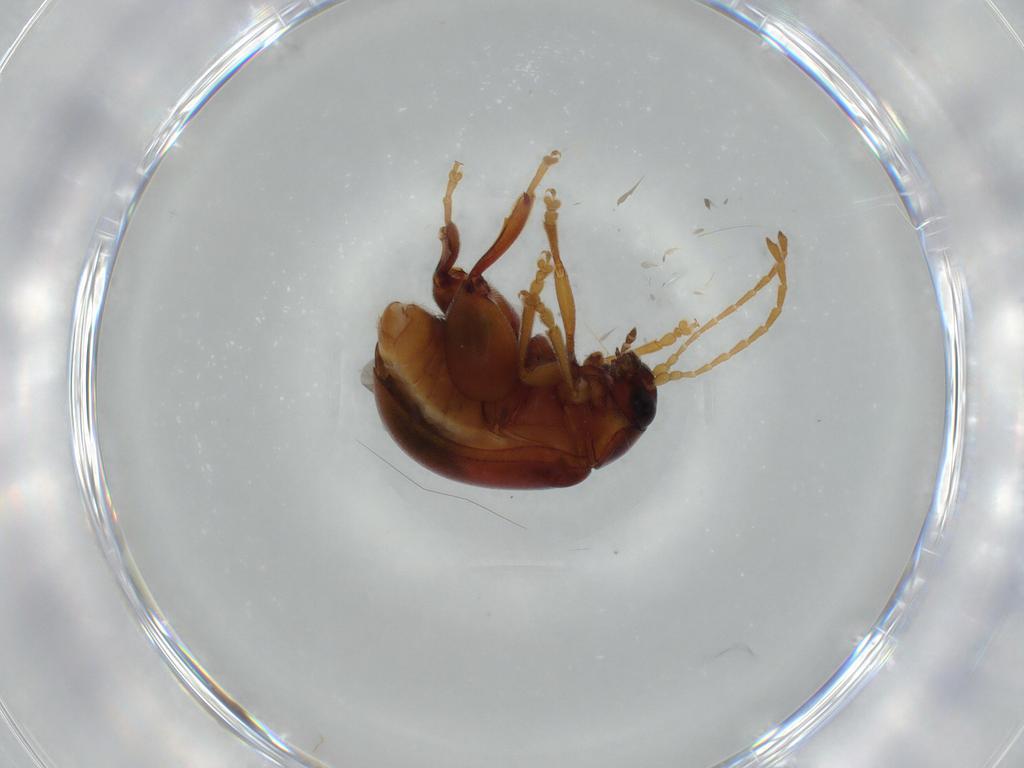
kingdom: Animalia
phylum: Arthropoda
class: Insecta
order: Coleoptera
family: Chrysomelidae
